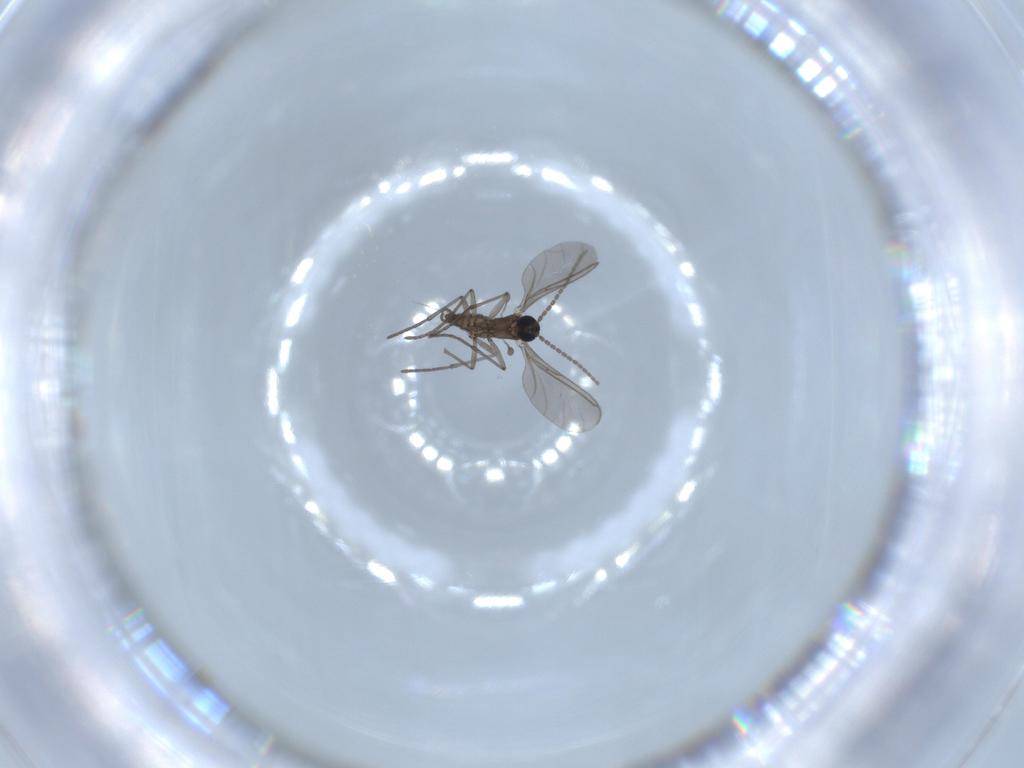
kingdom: Animalia
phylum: Arthropoda
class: Insecta
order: Diptera
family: Sciaridae
